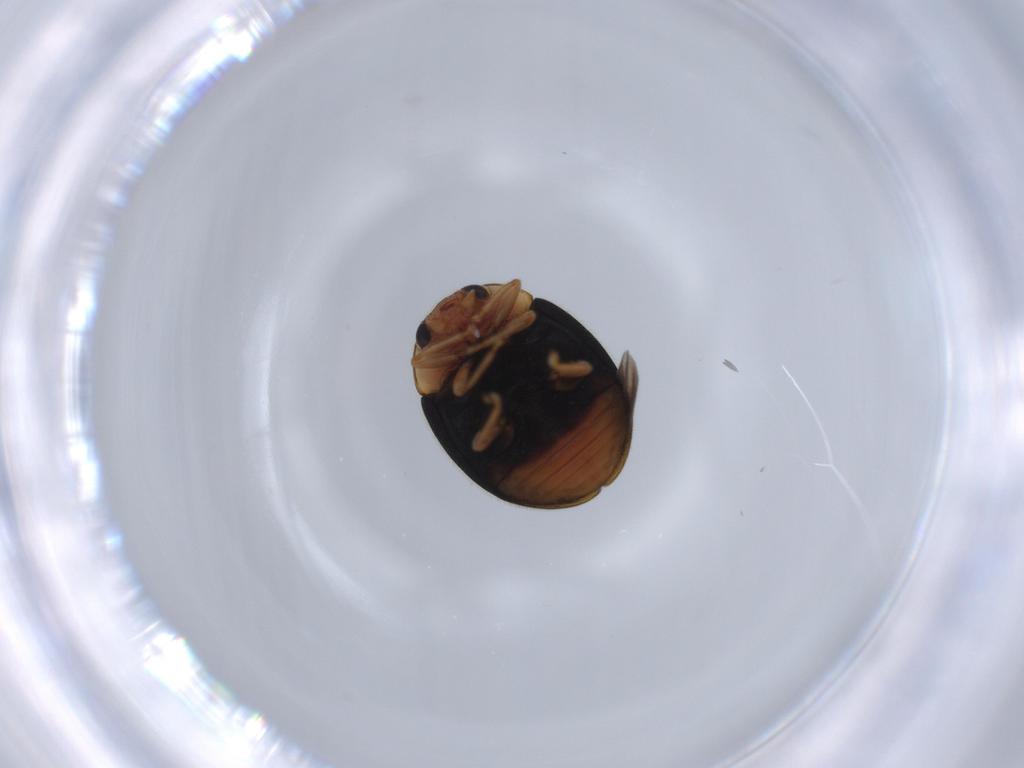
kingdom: Animalia
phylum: Arthropoda
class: Insecta
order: Coleoptera
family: Coccinellidae
